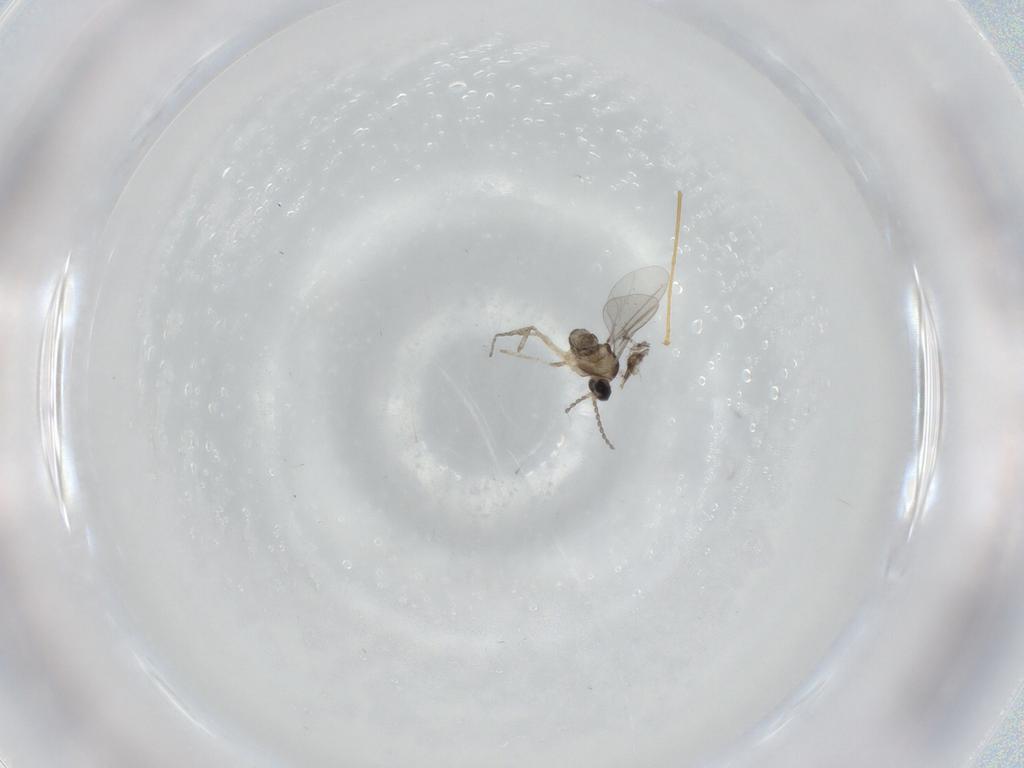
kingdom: Animalia
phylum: Arthropoda
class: Insecta
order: Diptera
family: Cecidomyiidae
